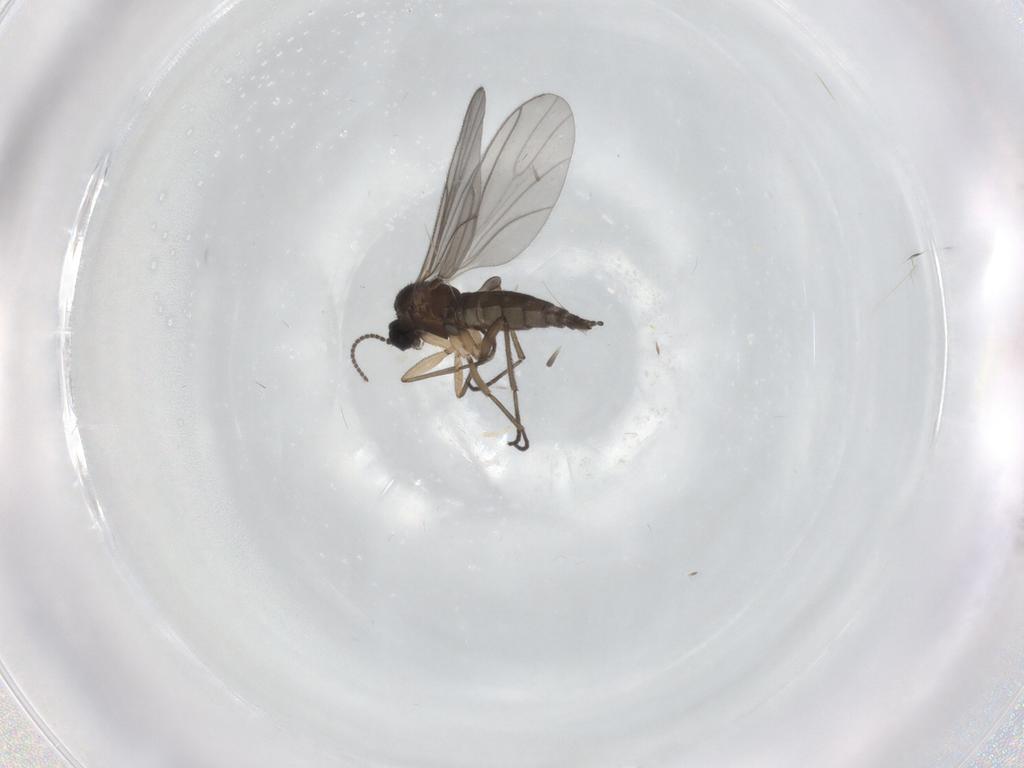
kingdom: Animalia
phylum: Arthropoda
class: Insecta
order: Diptera
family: Sciaridae
